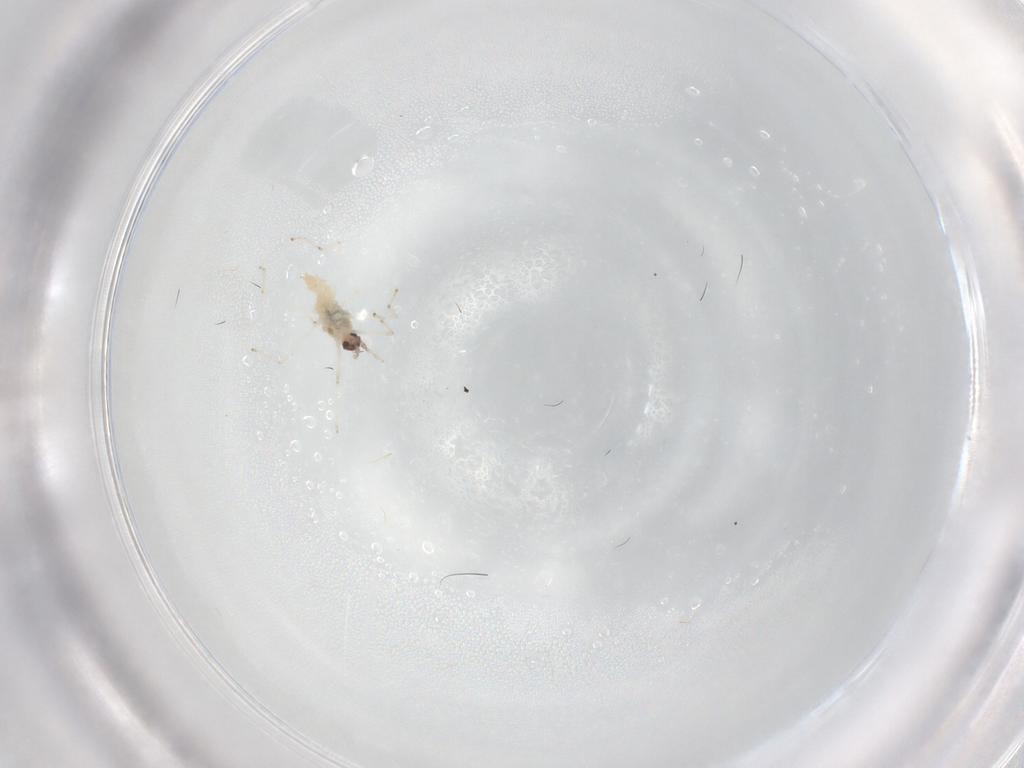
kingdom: Animalia
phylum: Arthropoda
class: Insecta
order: Diptera
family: Cecidomyiidae
